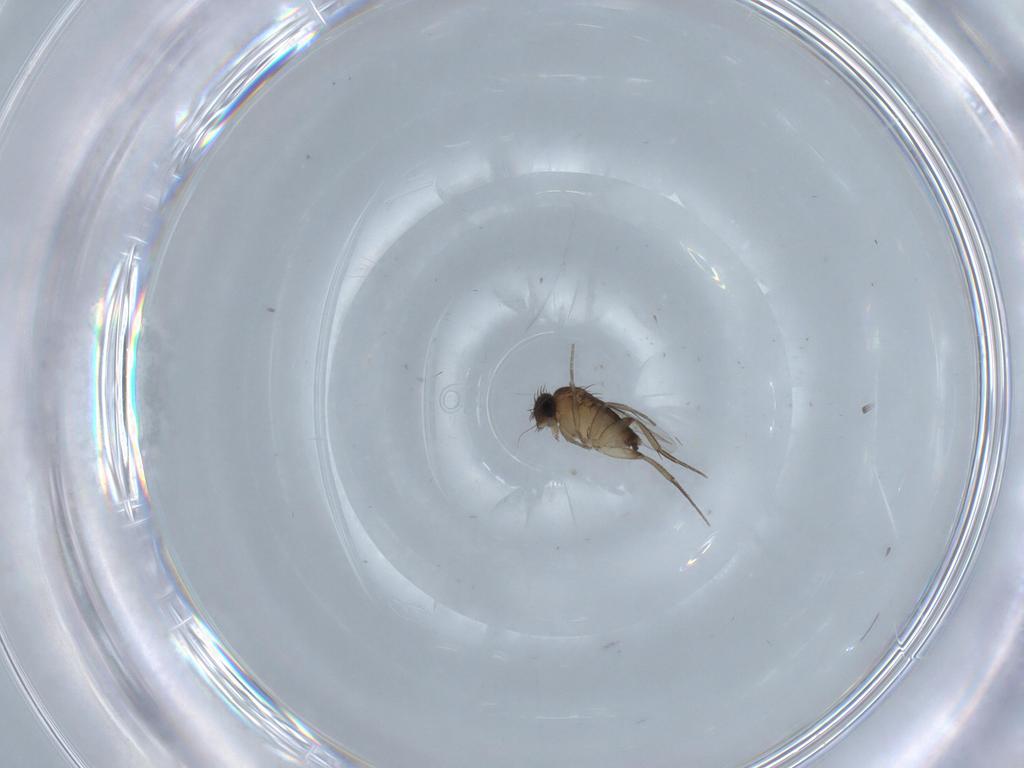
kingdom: Animalia
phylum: Arthropoda
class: Insecta
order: Diptera
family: Phoridae
